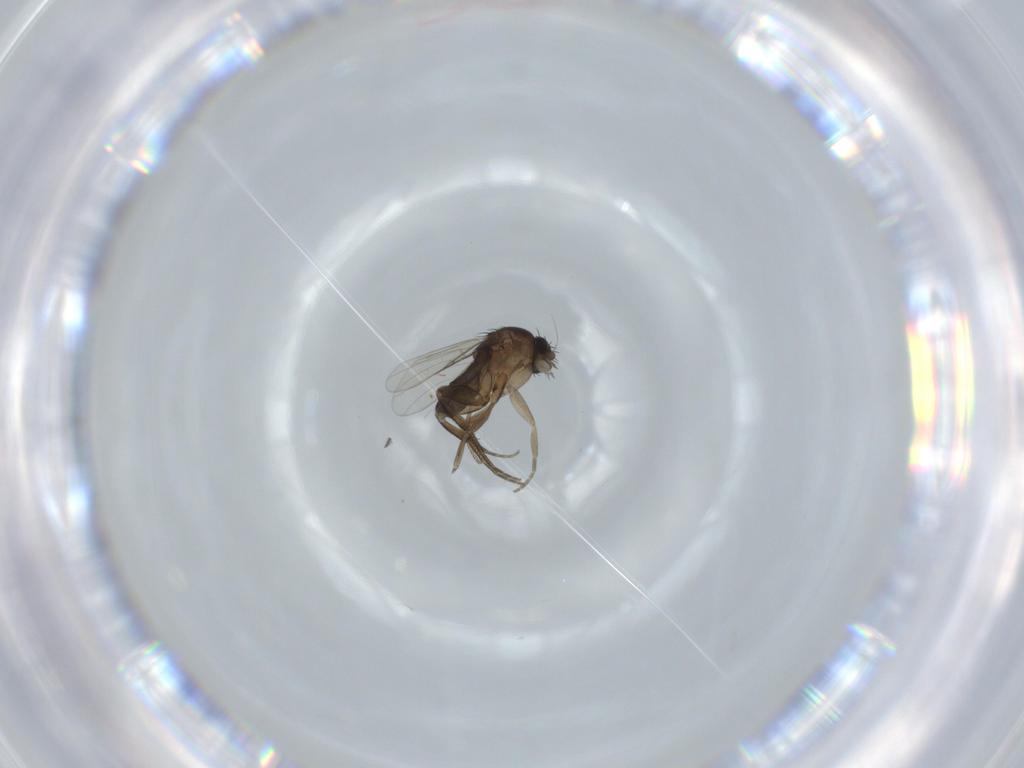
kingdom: Animalia
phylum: Arthropoda
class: Insecta
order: Diptera
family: Phoridae
